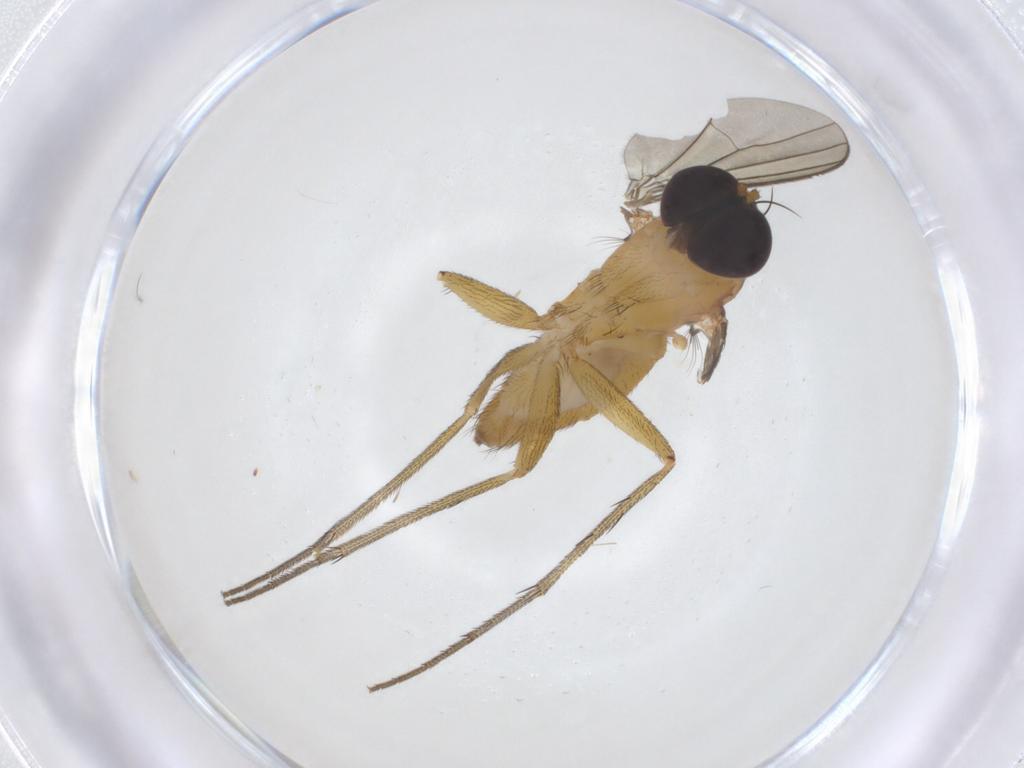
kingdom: Animalia
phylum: Arthropoda
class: Insecta
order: Diptera
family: Dolichopodidae
